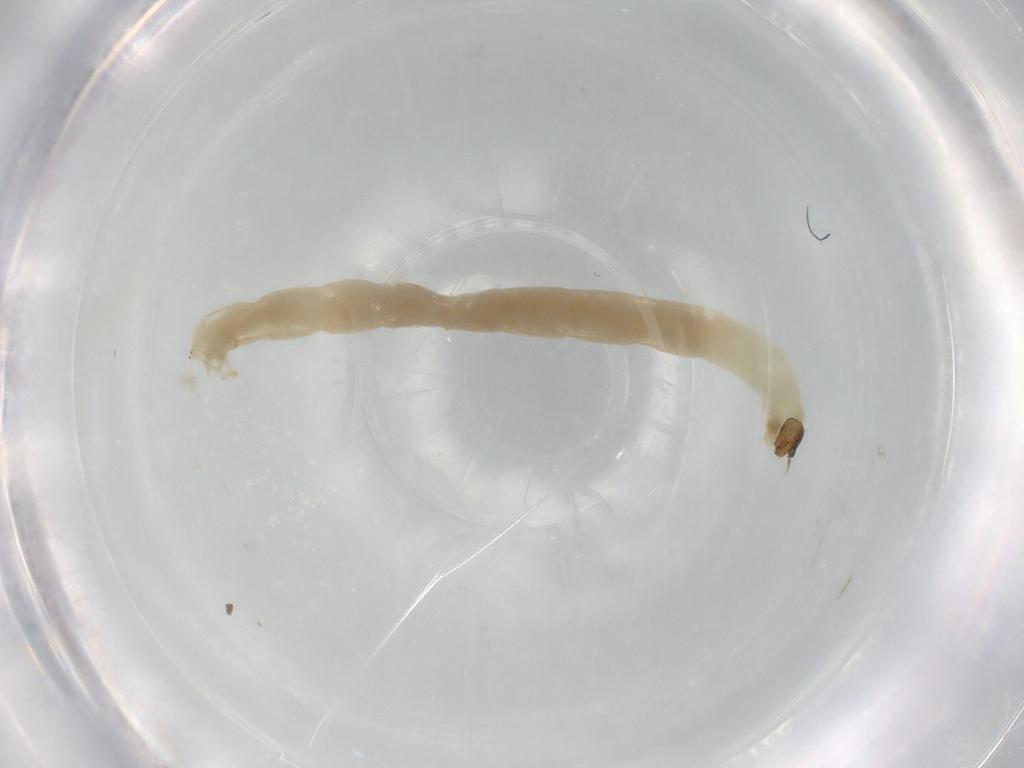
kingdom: Animalia
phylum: Arthropoda
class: Insecta
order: Diptera
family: Chironomidae
